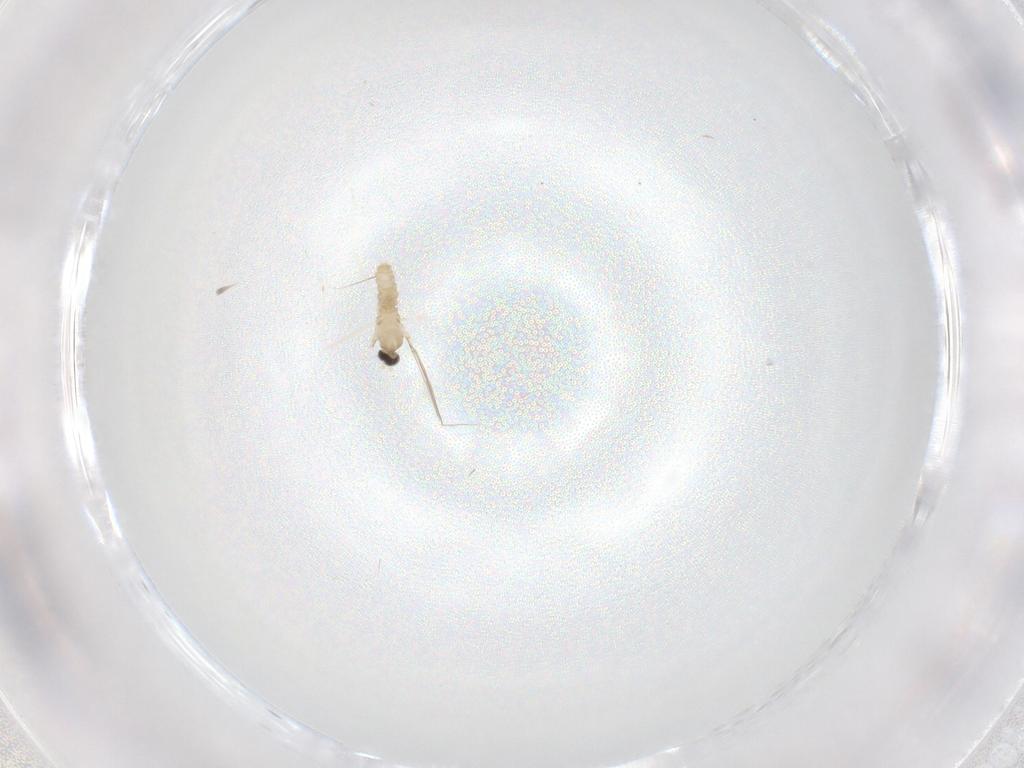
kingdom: Animalia
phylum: Arthropoda
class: Insecta
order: Diptera
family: Cecidomyiidae
